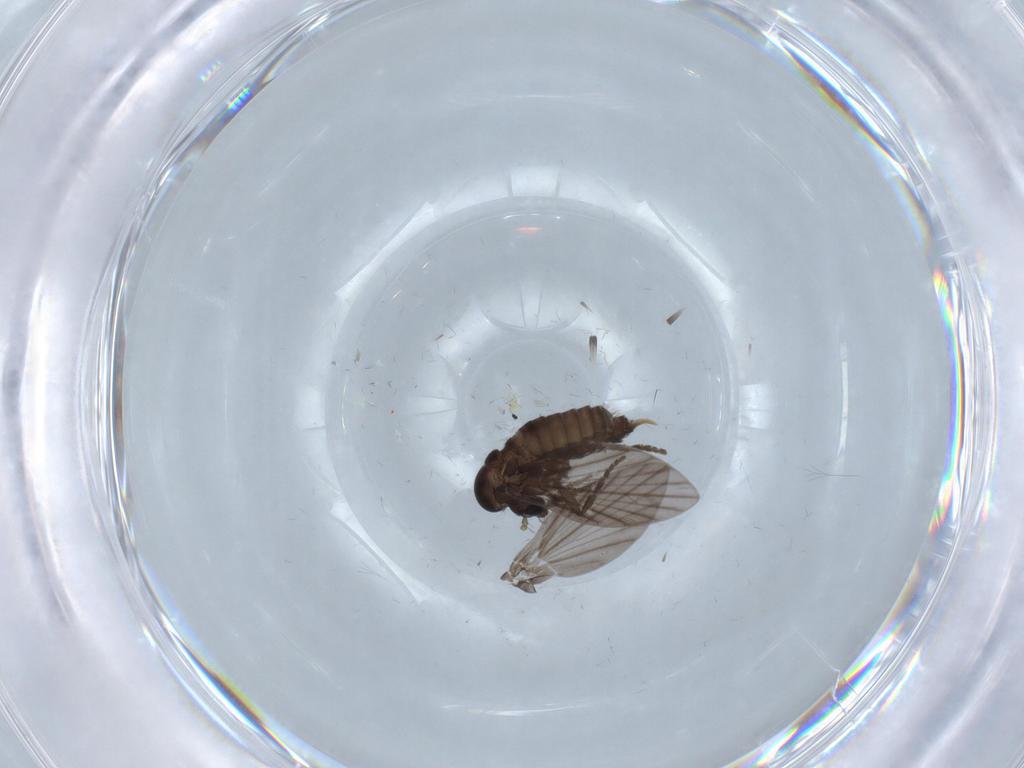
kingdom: Animalia
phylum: Arthropoda
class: Insecta
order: Diptera
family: Psychodidae
